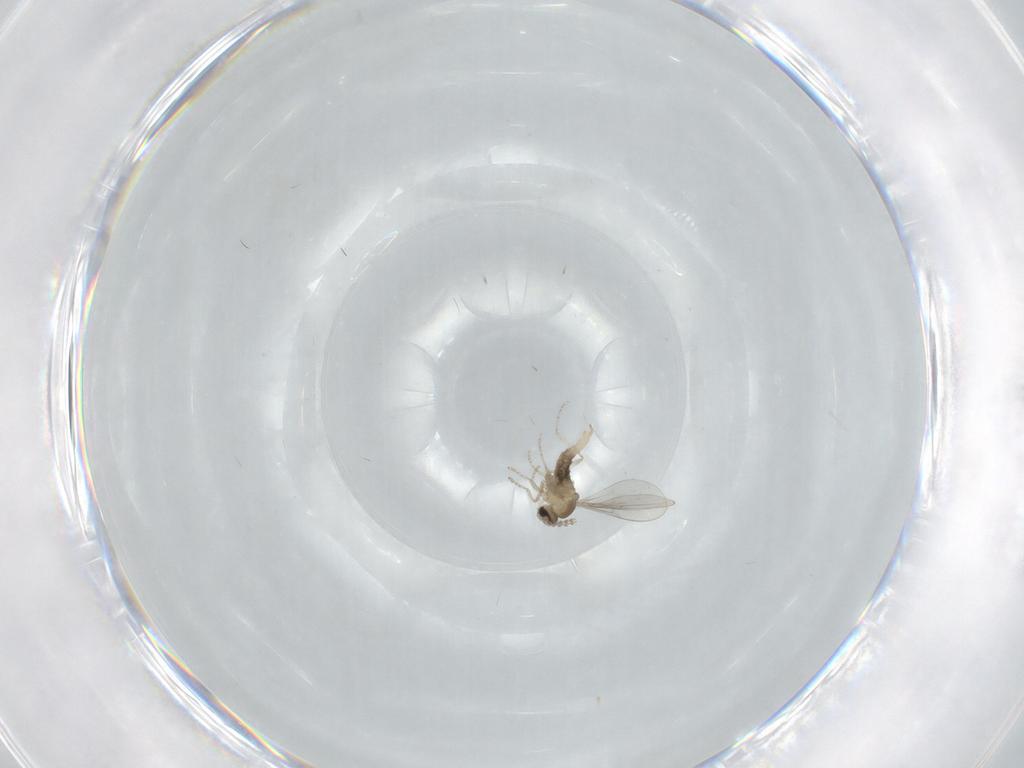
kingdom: Animalia
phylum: Arthropoda
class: Insecta
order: Diptera
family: Cecidomyiidae
